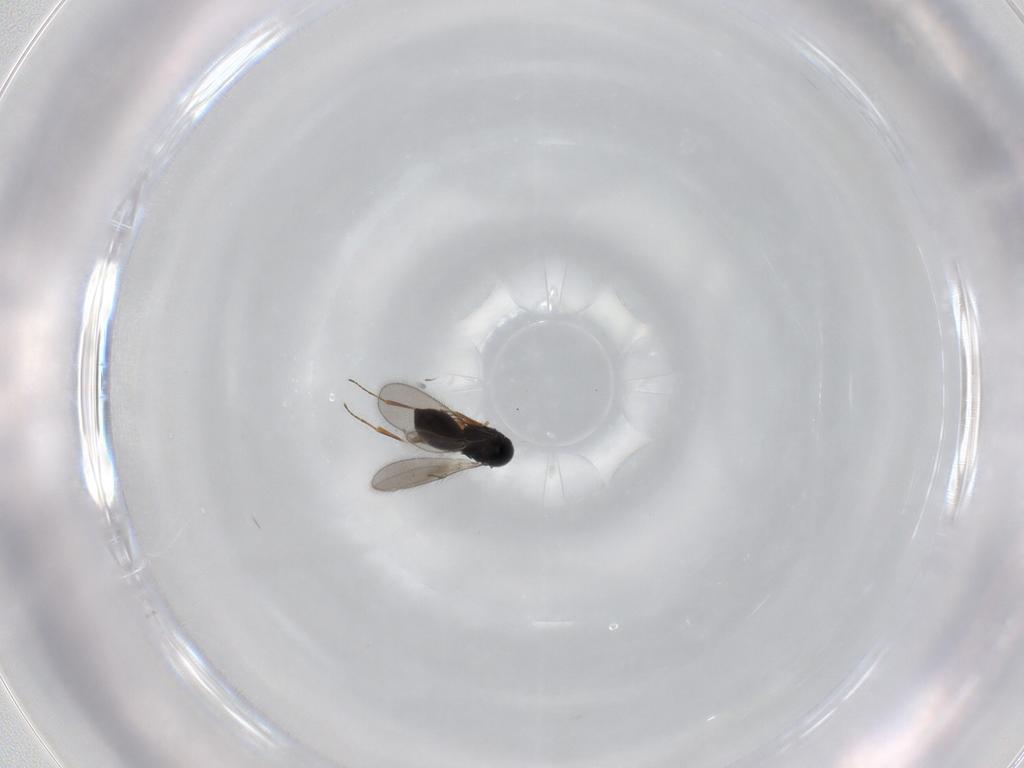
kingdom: Animalia
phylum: Arthropoda
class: Insecta
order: Hymenoptera
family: Scelionidae
